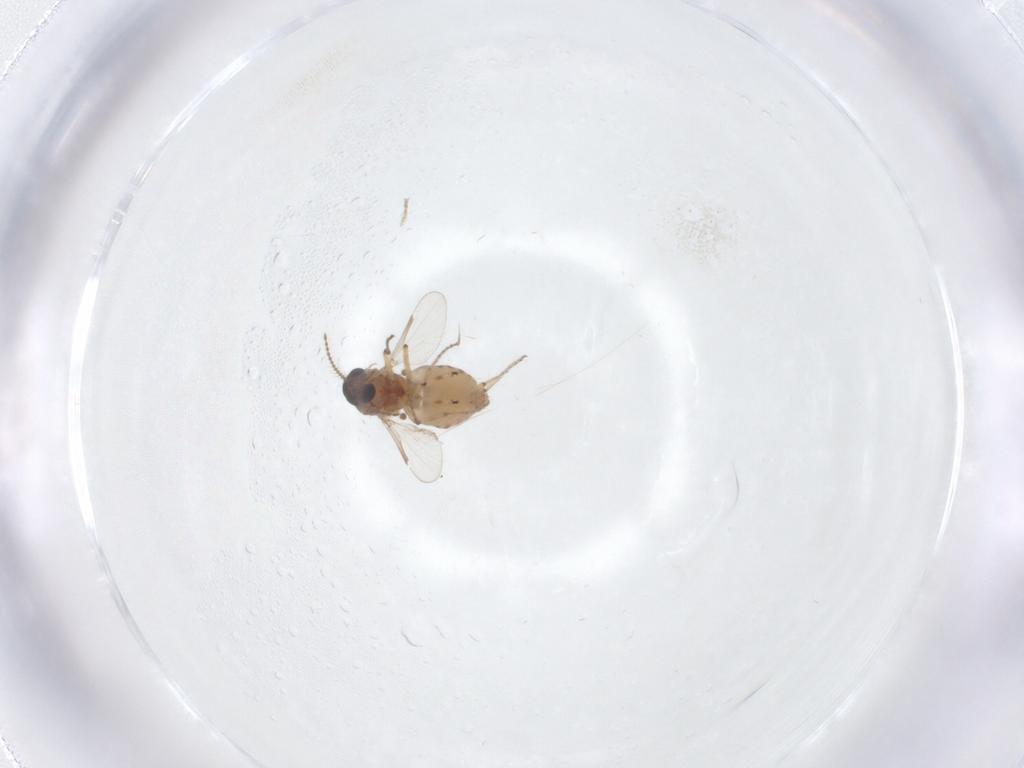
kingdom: Animalia
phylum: Arthropoda
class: Insecta
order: Diptera
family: Ceratopogonidae
